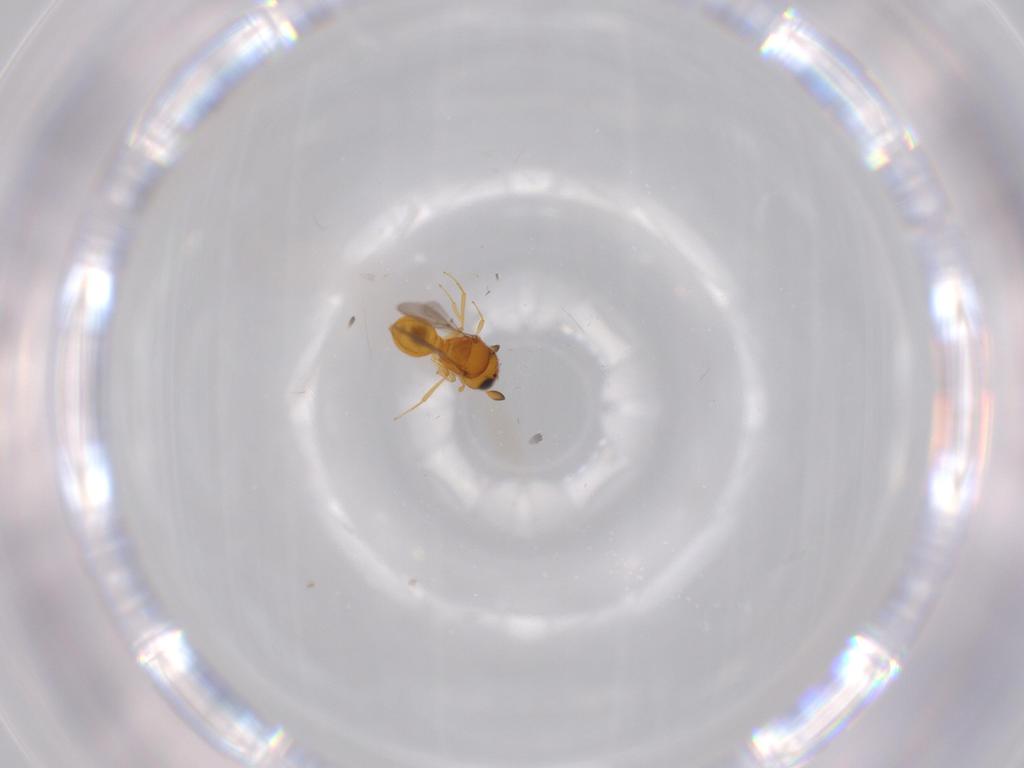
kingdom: Animalia
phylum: Arthropoda
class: Insecta
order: Hymenoptera
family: Scelionidae
